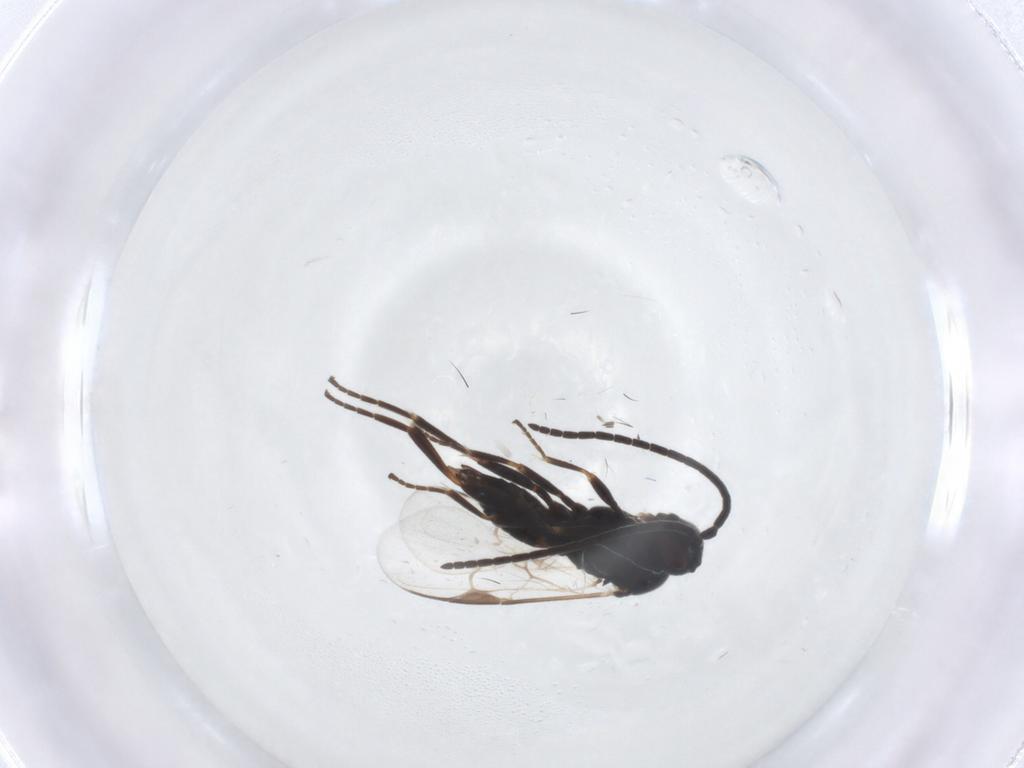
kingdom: Animalia
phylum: Arthropoda
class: Insecta
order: Hymenoptera
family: Braconidae
